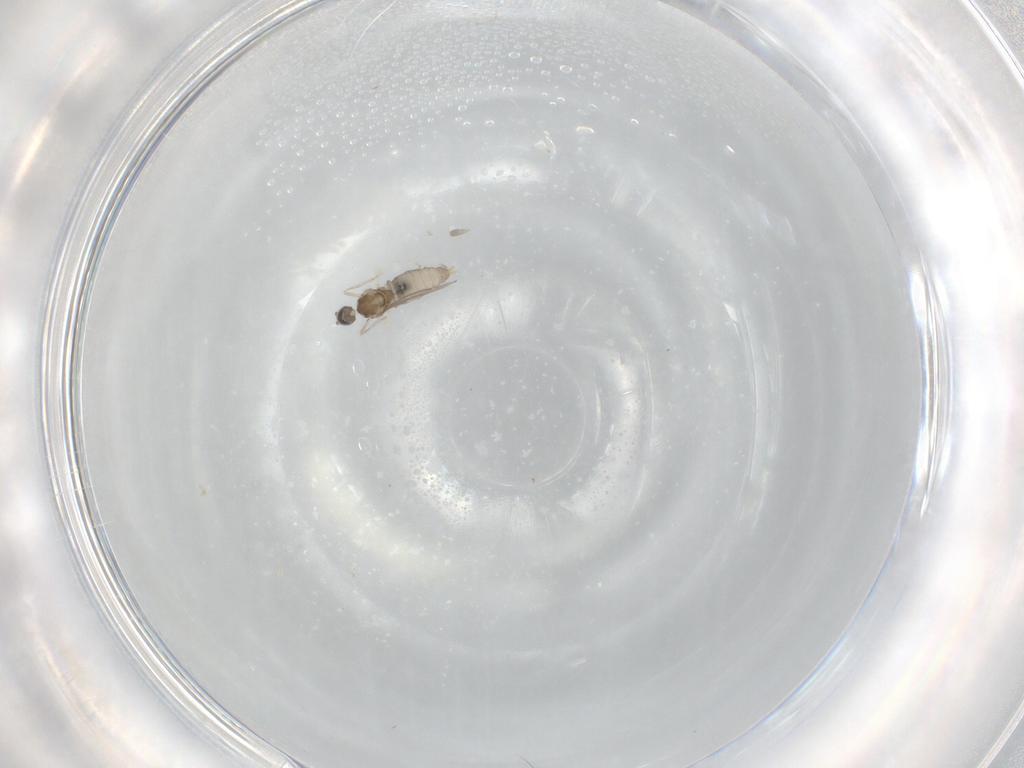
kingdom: Animalia
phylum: Arthropoda
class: Insecta
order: Diptera
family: Cecidomyiidae
